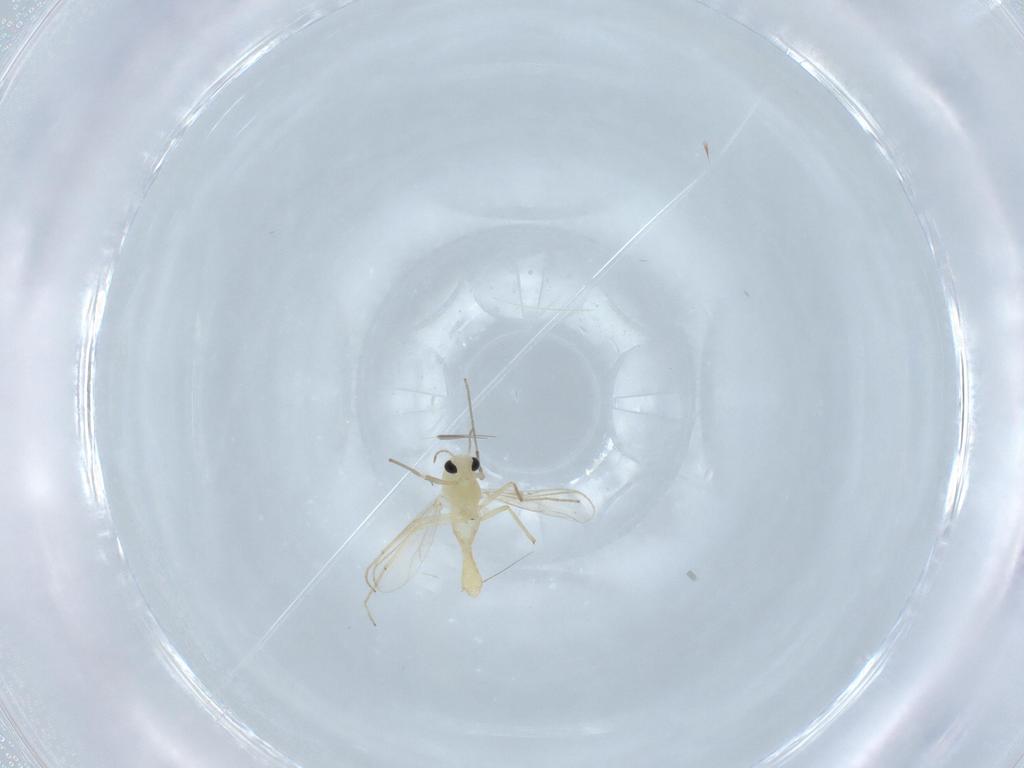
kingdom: Animalia
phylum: Arthropoda
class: Insecta
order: Diptera
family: Chironomidae
